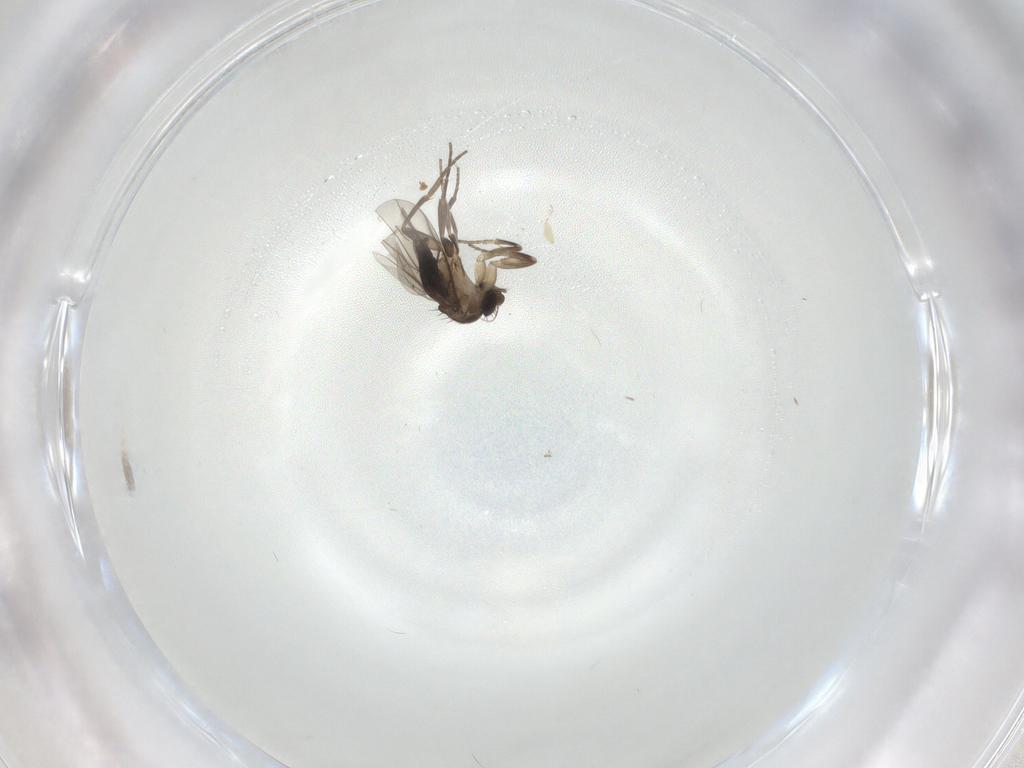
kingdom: Animalia
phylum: Arthropoda
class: Insecta
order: Diptera
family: Phoridae
